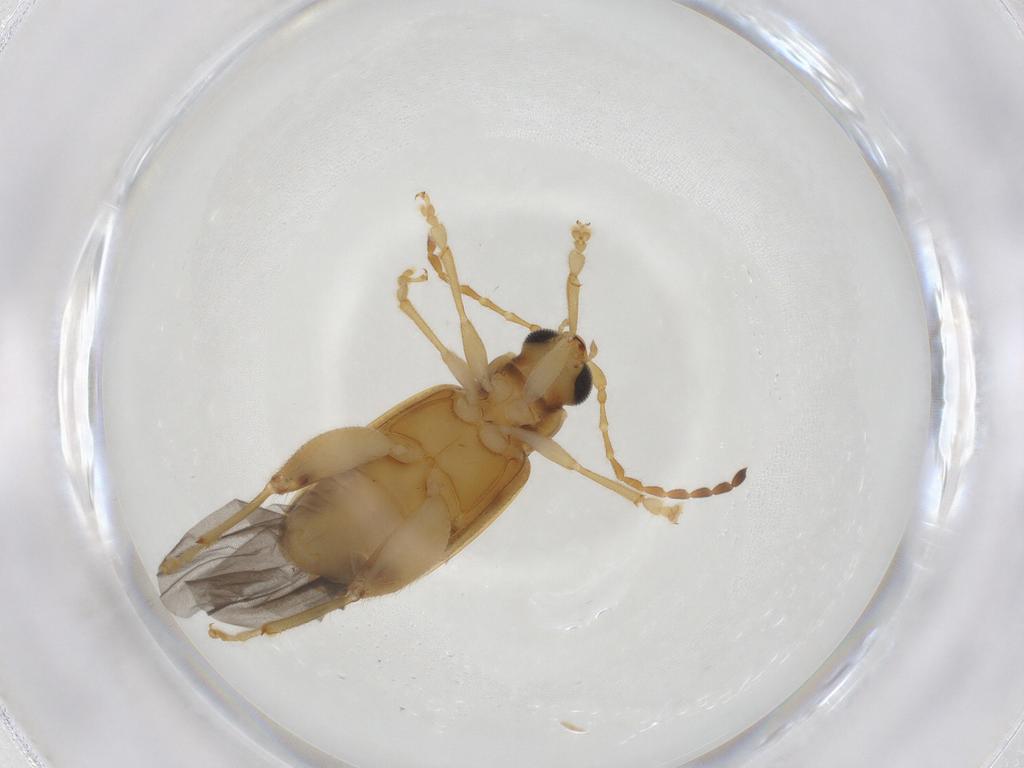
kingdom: Animalia
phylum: Arthropoda
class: Insecta
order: Coleoptera
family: Chrysomelidae
